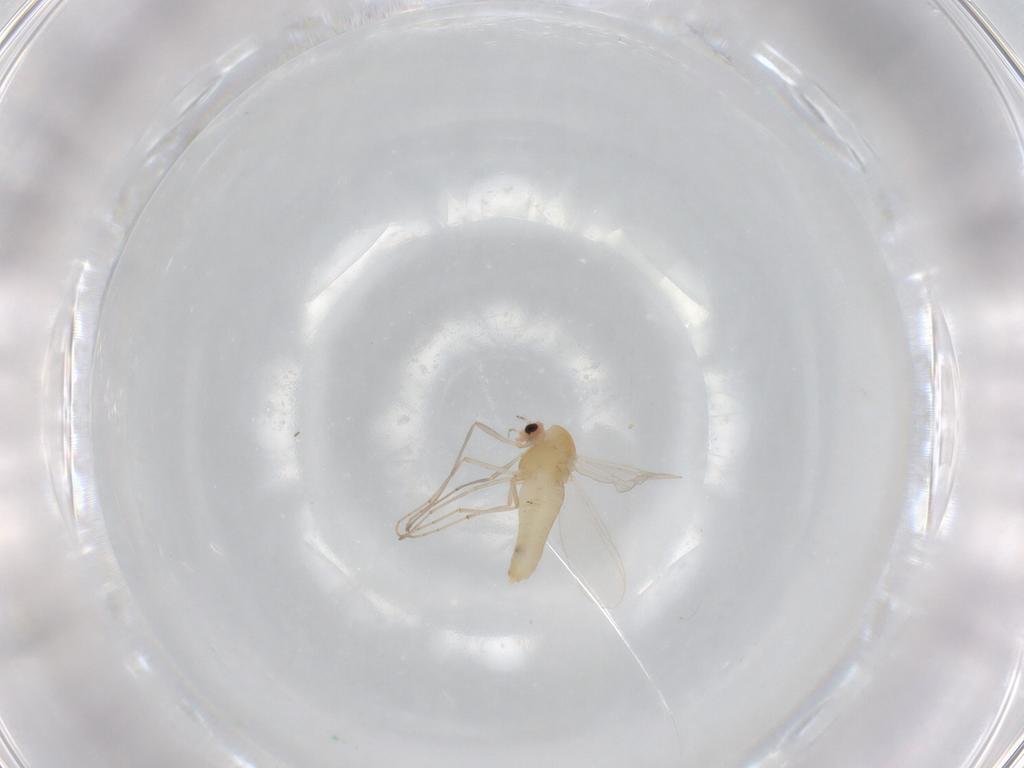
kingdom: Animalia
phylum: Arthropoda
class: Insecta
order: Diptera
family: Chironomidae
